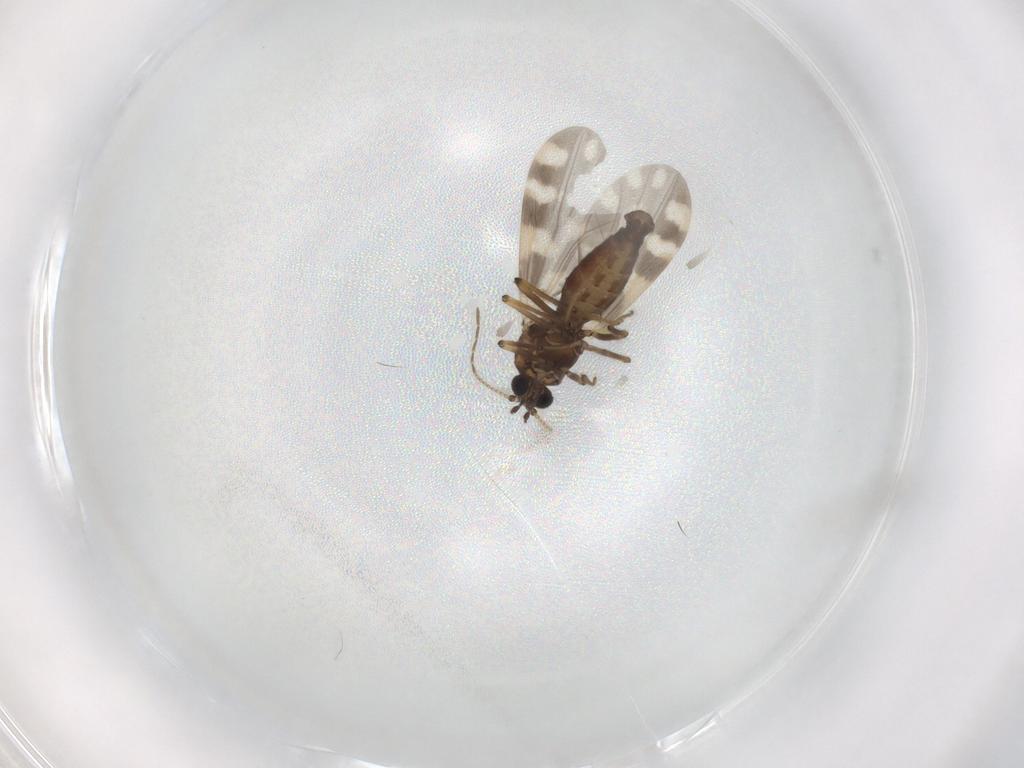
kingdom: Animalia
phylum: Arthropoda
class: Insecta
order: Diptera
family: Chironomidae
